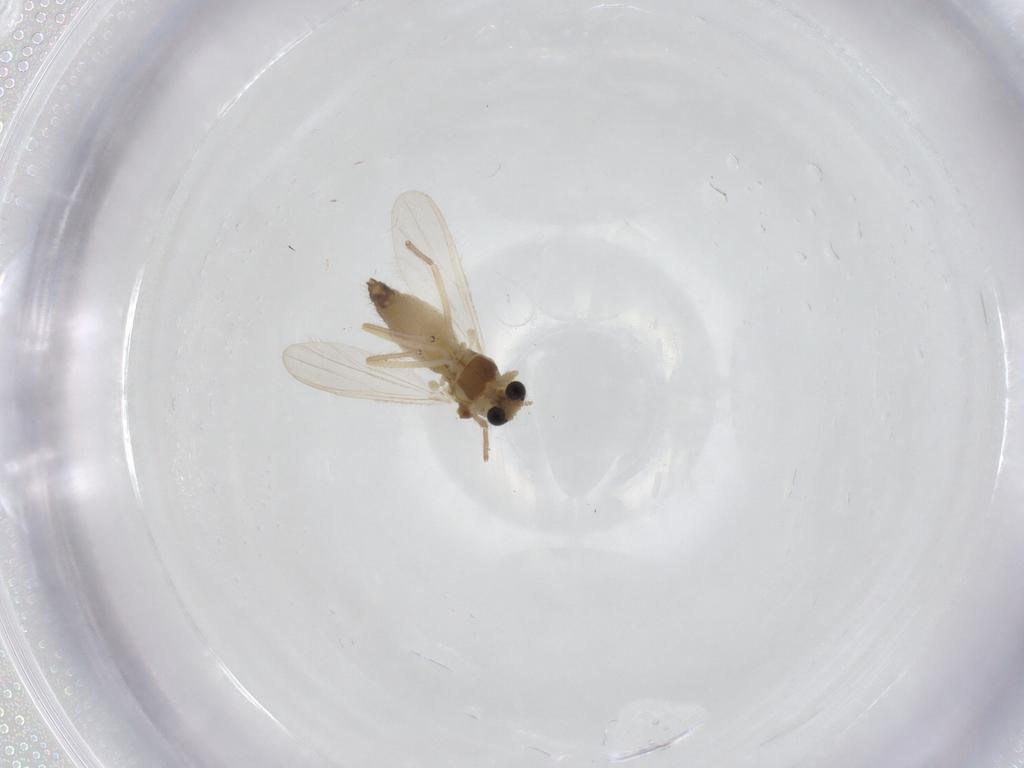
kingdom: Animalia
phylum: Arthropoda
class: Insecta
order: Diptera
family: Chironomidae
